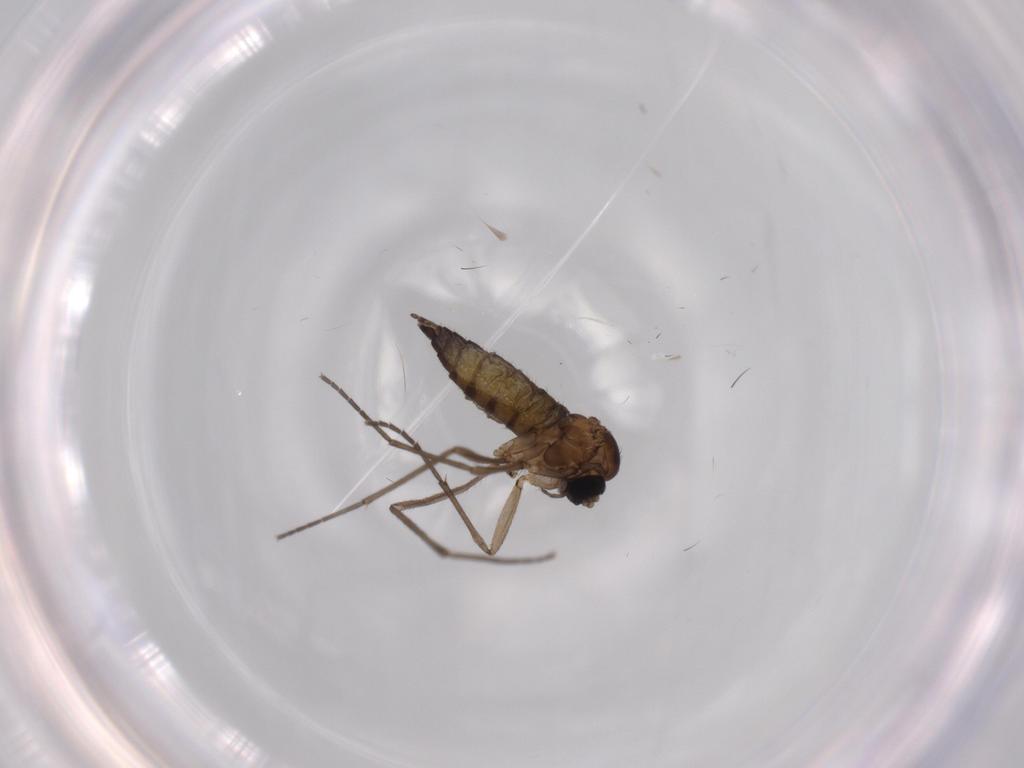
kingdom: Animalia
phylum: Arthropoda
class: Insecta
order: Diptera
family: Sciaridae
